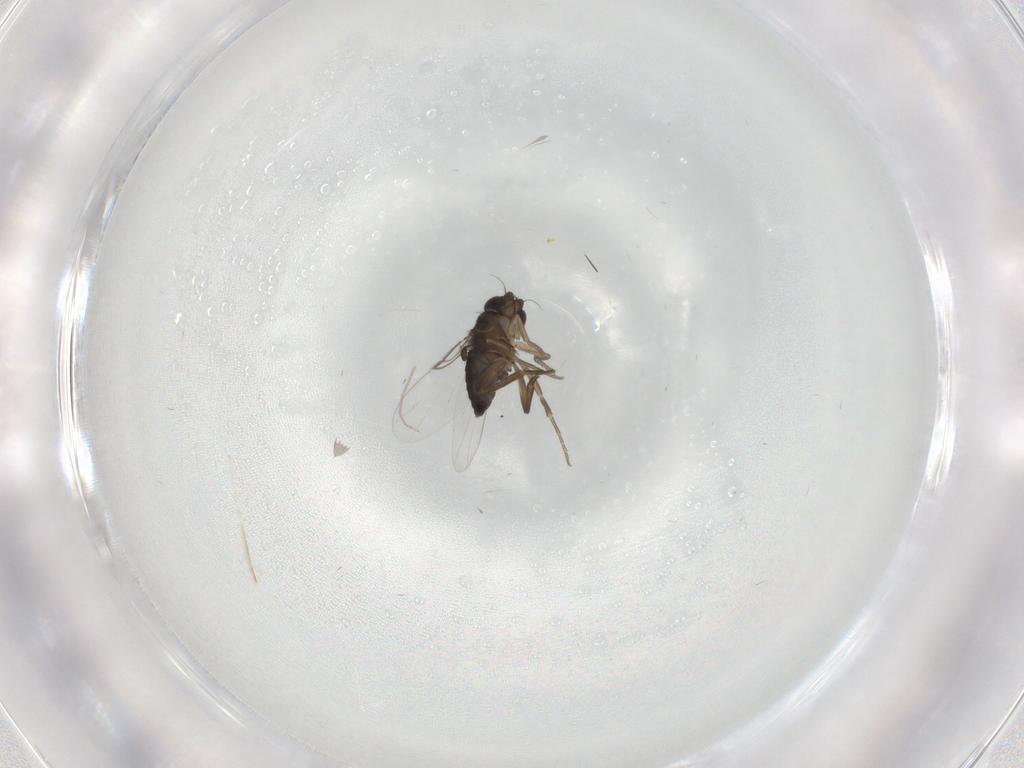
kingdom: Animalia
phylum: Arthropoda
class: Insecta
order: Diptera
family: Phoridae
